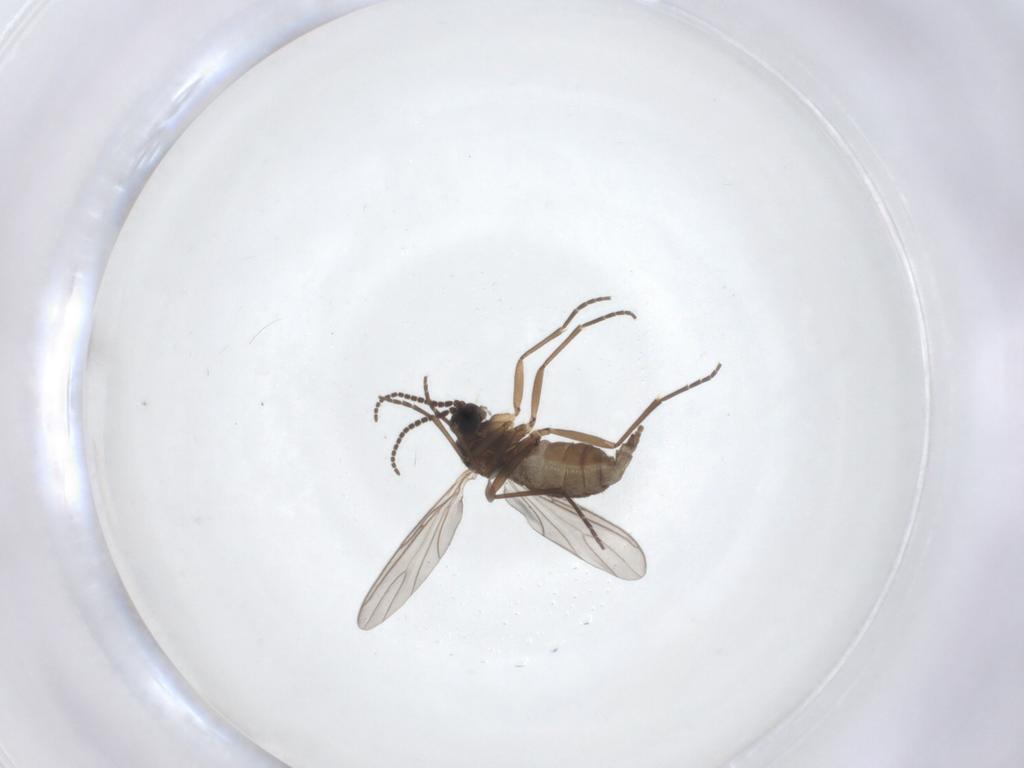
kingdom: Animalia
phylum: Arthropoda
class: Insecta
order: Diptera
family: Sciaridae
